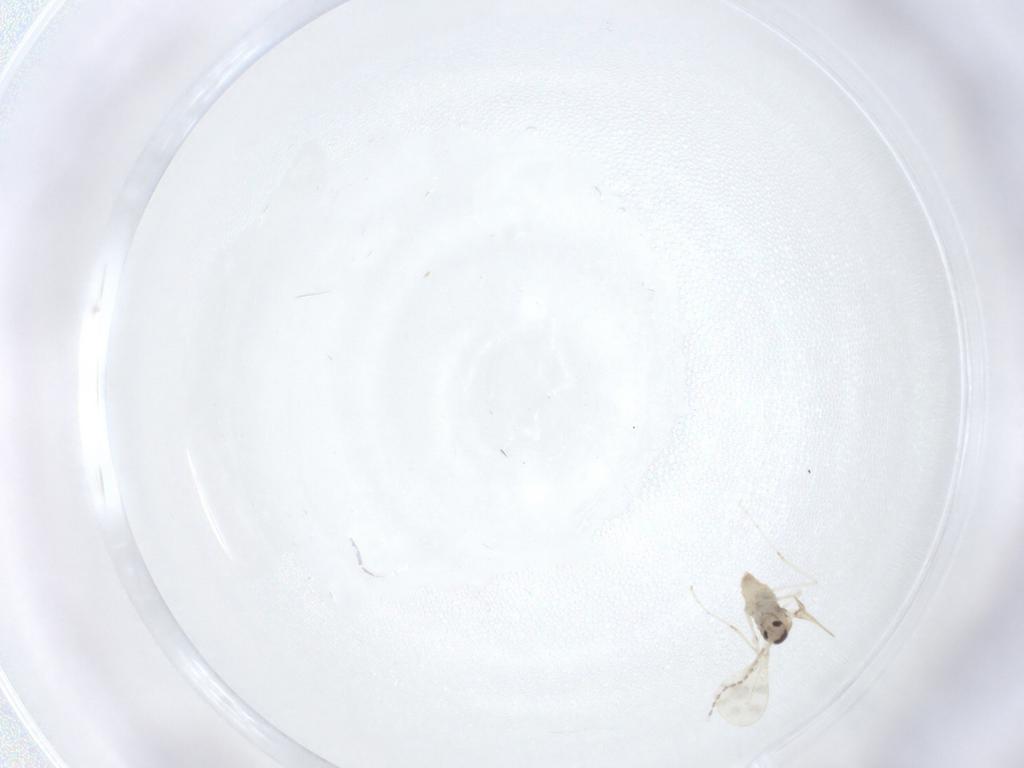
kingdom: Animalia
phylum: Arthropoda
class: Insecta
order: Diptera
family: Cecidomyiidae
